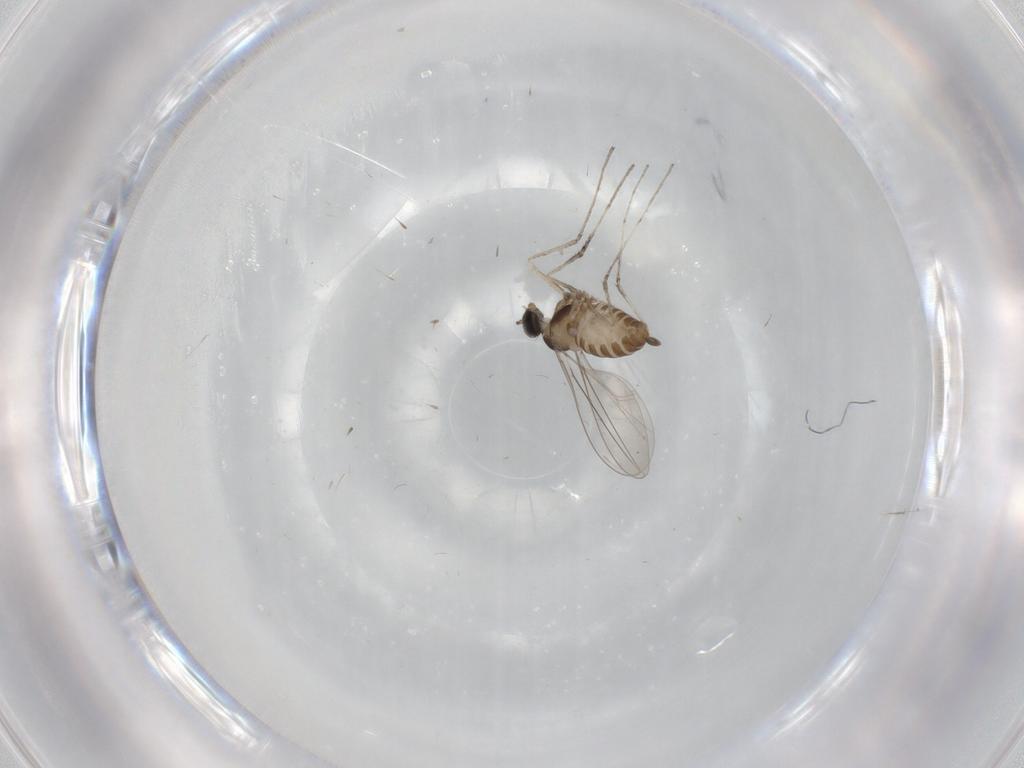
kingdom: Animalia
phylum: Arthropoda
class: Insecta
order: Diptera
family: Cecidomyiidae
